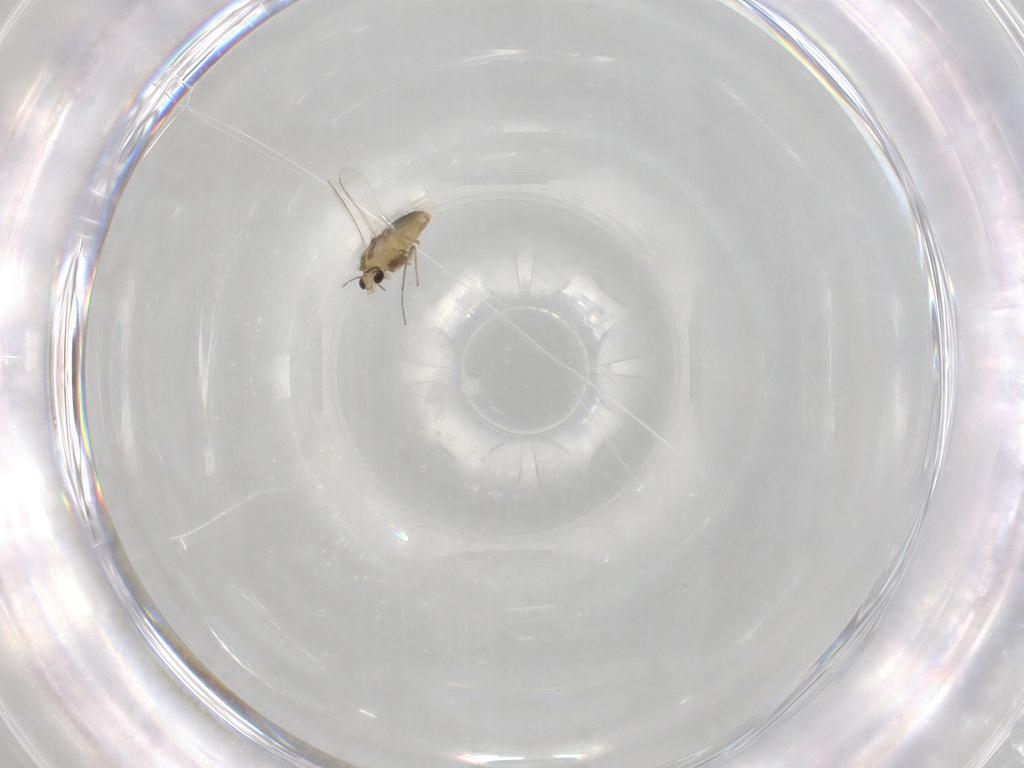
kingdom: Animalia
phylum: Arthropoda
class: Insecta
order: Diptera
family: Chironomidae
